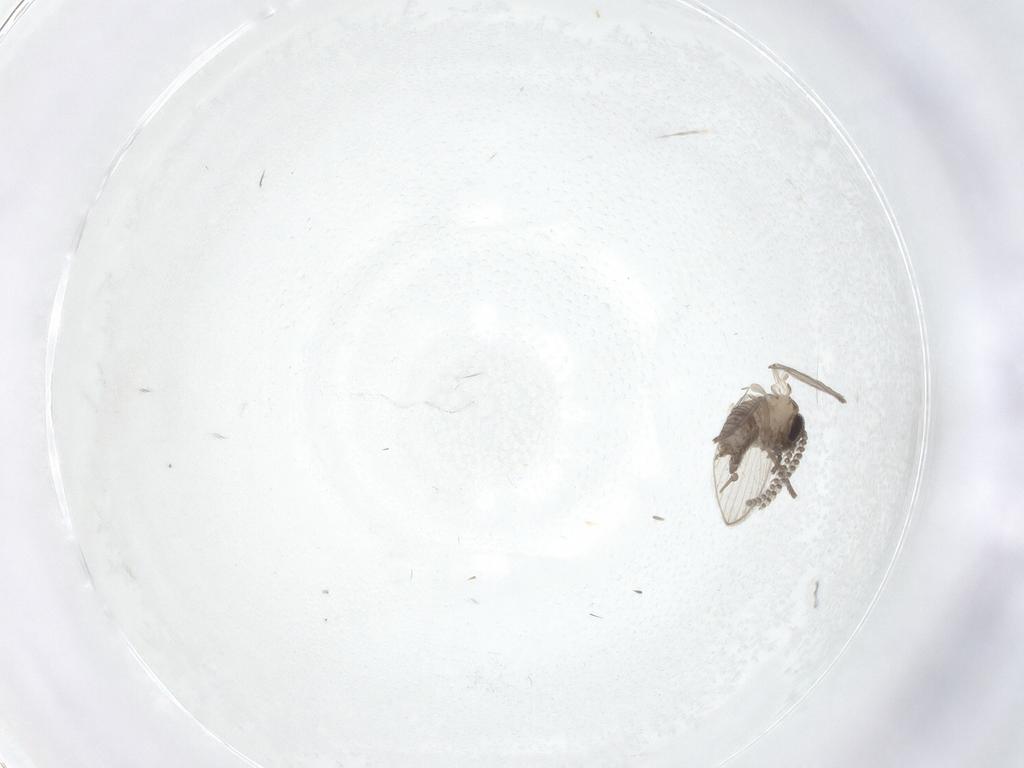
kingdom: Animalia
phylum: Arthropoda
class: Insecta
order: Diptera
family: Psychodidae
